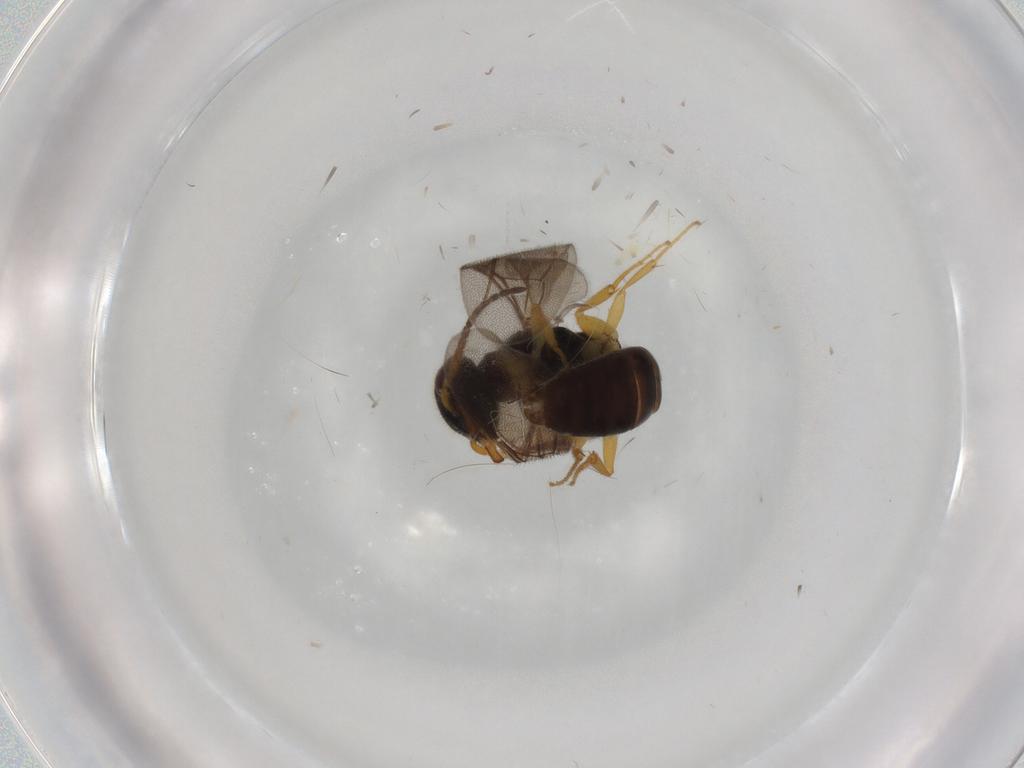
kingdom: Animalia
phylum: Arthropoda
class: Insecta
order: Hymenoptera
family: Bethylidae
